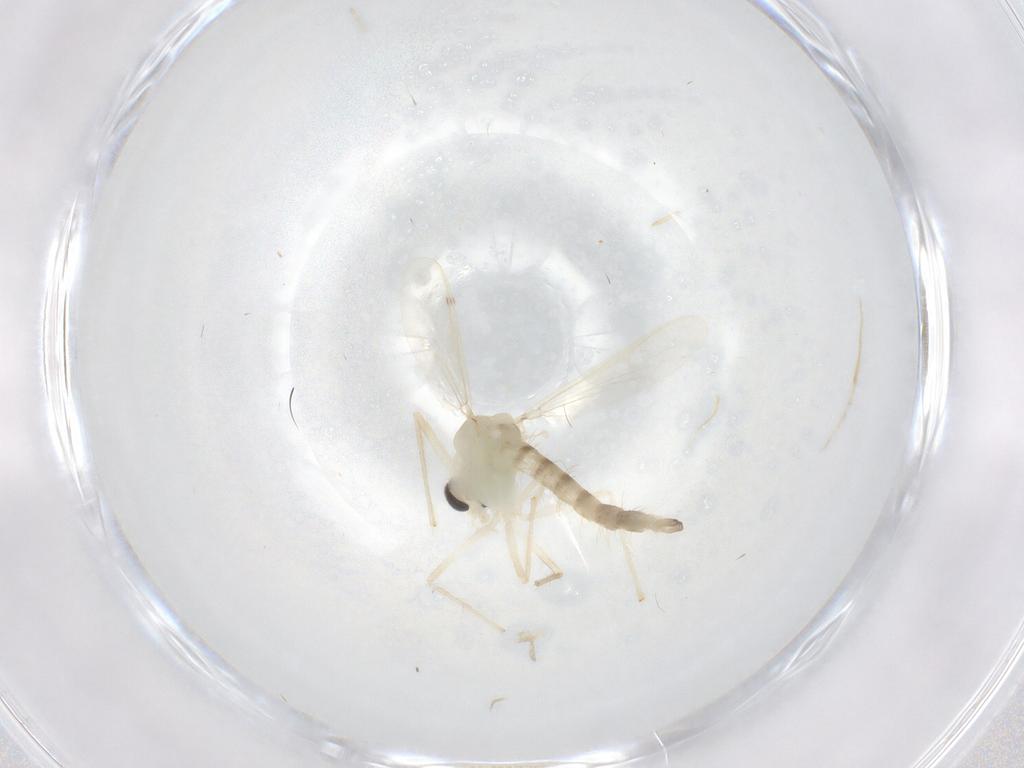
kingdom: Animalia
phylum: Arthropoda
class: Insecta
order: Diptera
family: Chironomidae
